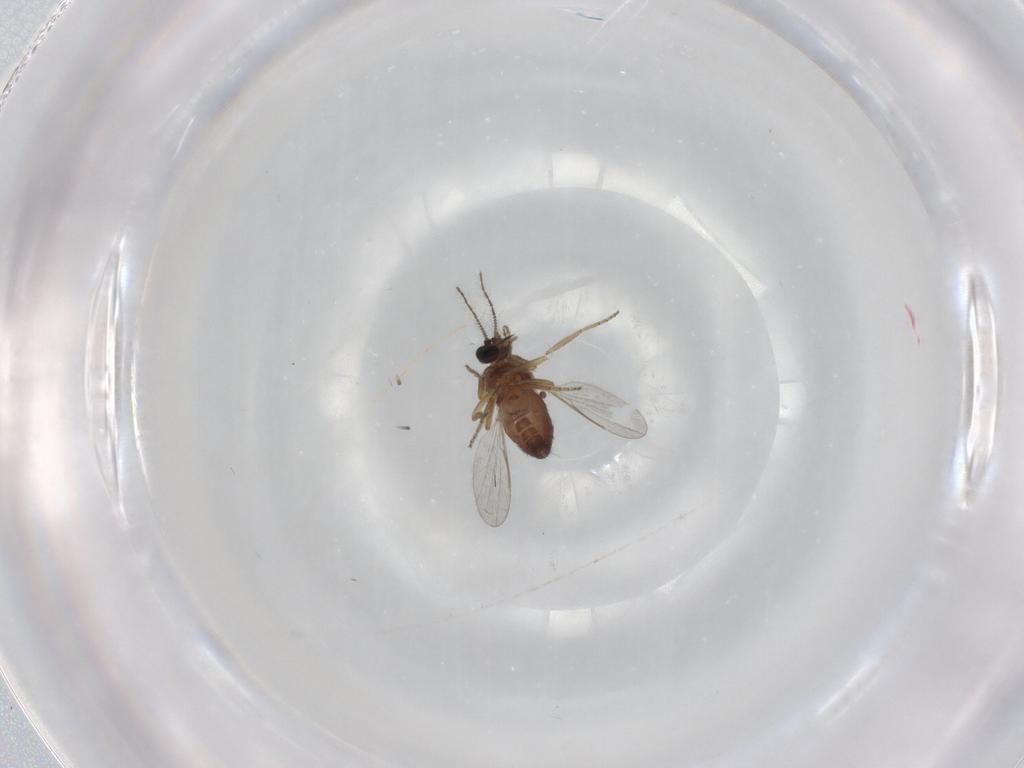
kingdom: Animalia
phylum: Arthropoda
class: Insecta
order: Diptera
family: Ceratopogonidae
